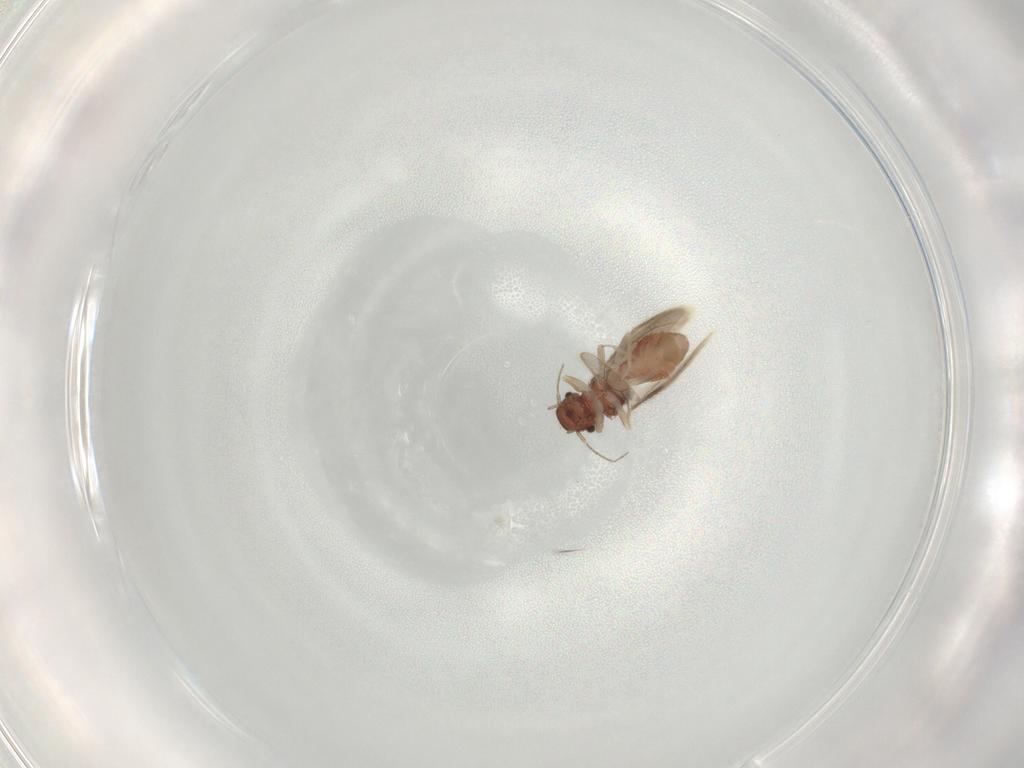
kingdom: Animalia
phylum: Arthropoda
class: Insecta
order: Psocodea
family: Archipsocidae
